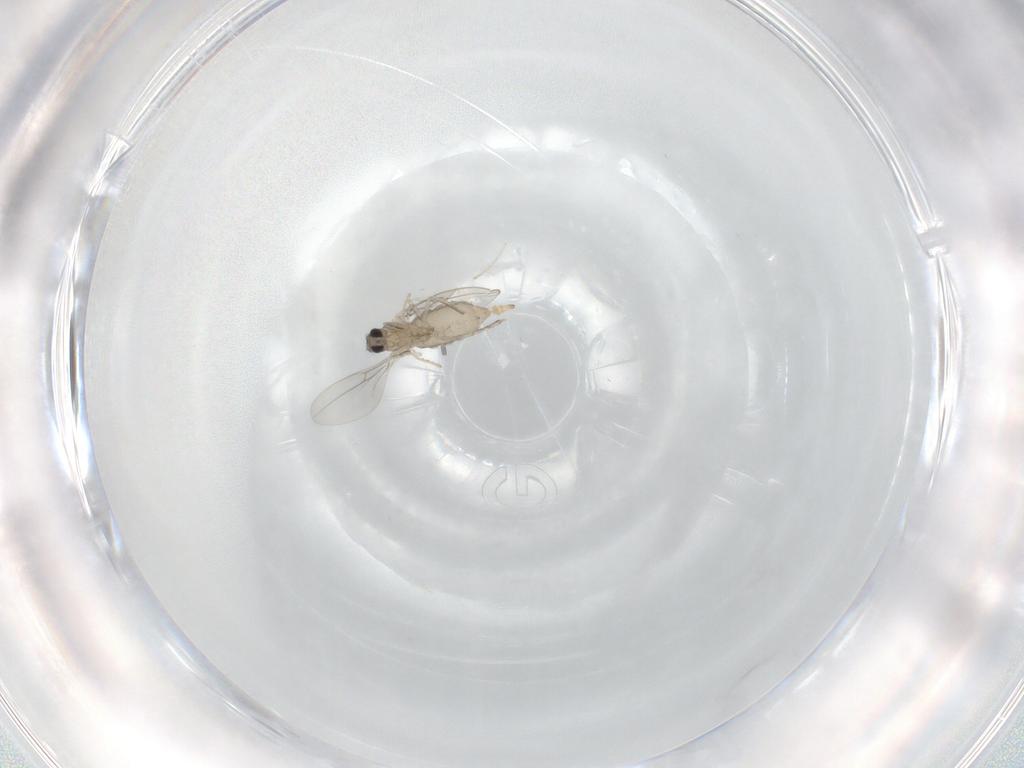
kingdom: Animalia
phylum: Arthropoda
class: Insecta
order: Diptera
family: Cecidomyiidae
